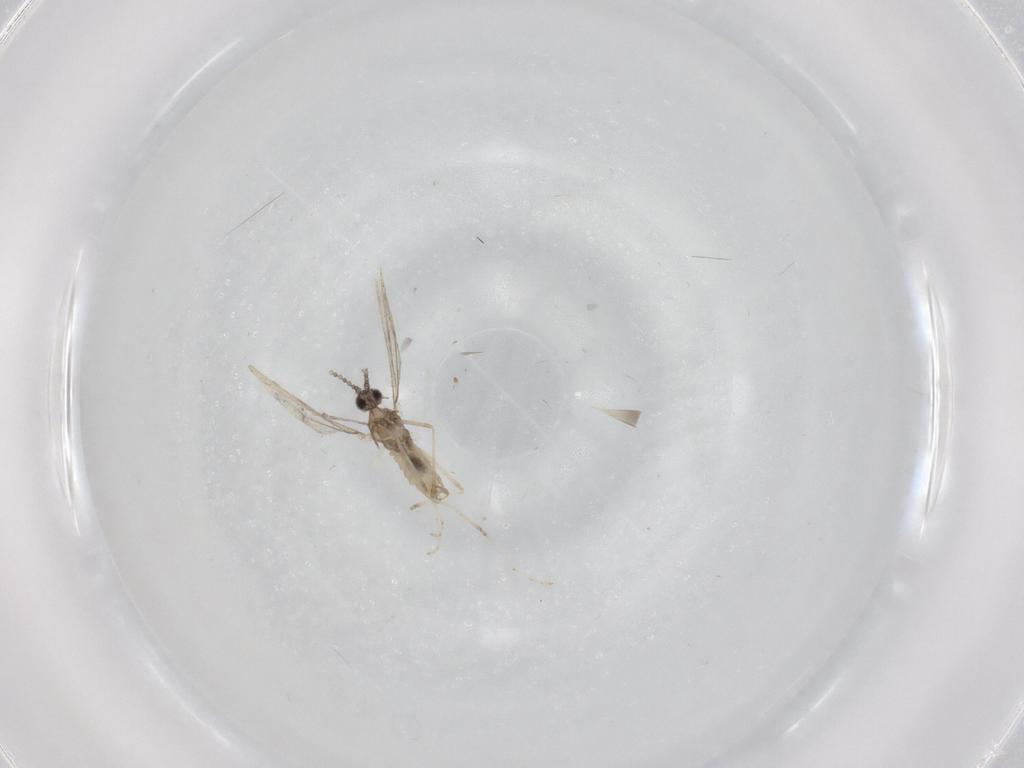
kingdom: Animalia
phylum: Arthropoda
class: Insecta
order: Diptera
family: Cecidomyiidae
